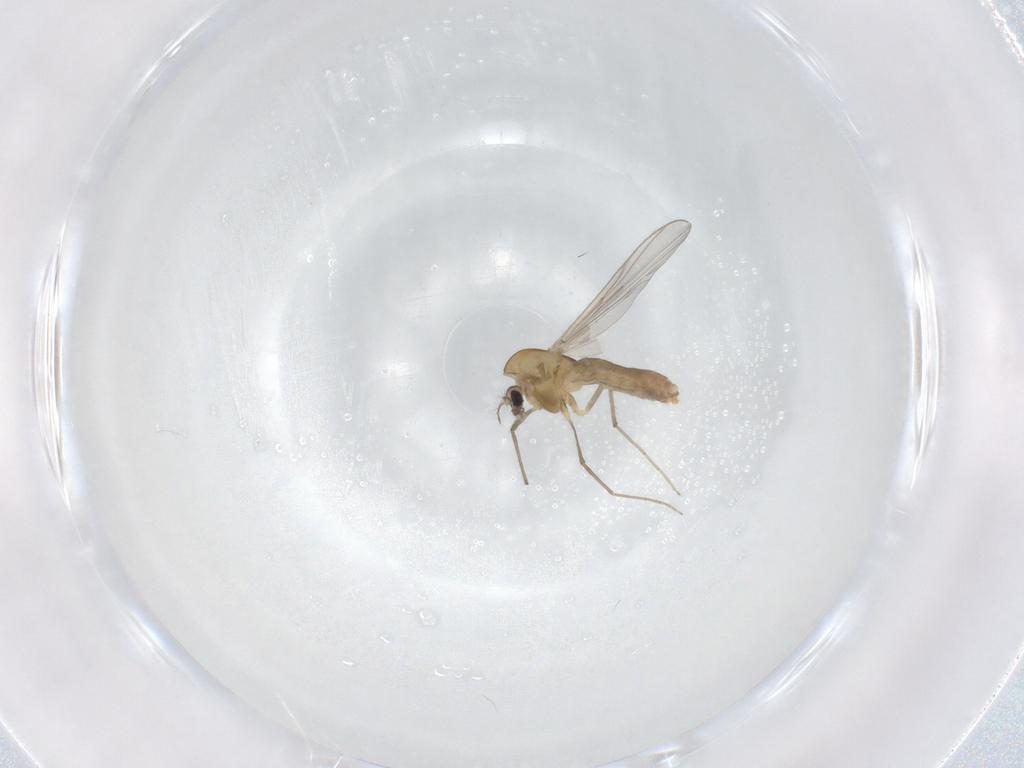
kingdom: Animalia
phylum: Arthropoda
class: Insecta
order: Diptera
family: Chironomidae
